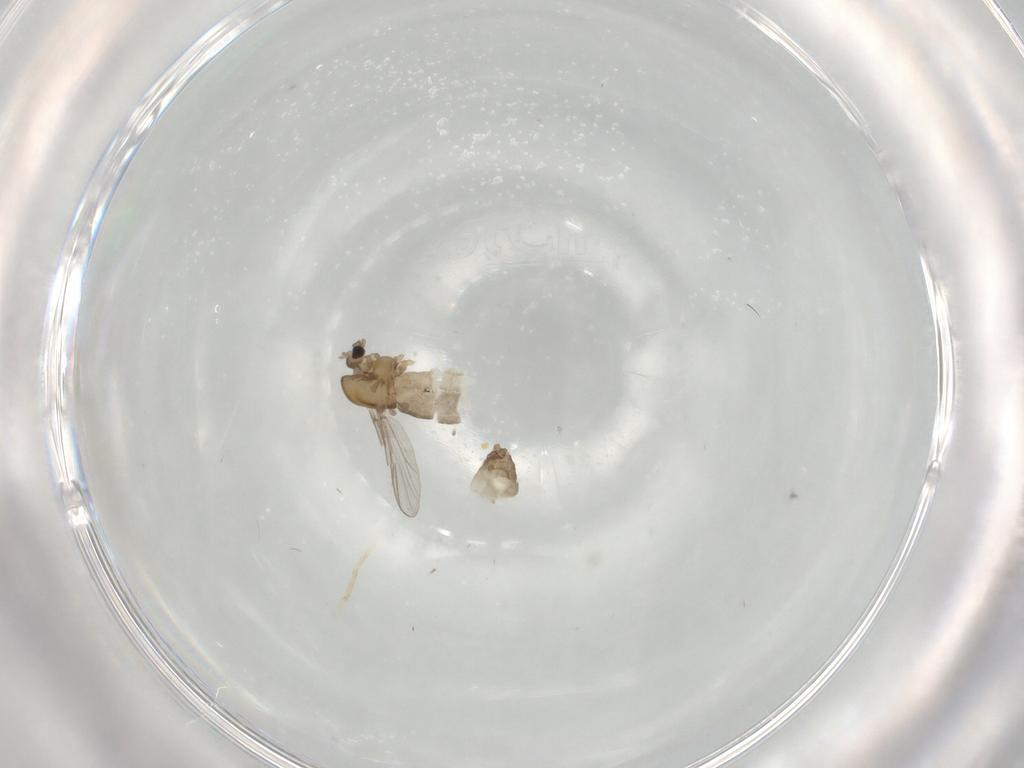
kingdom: Animalia
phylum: Arthropoda
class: Insecta
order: Diptera
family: Chironomidae
